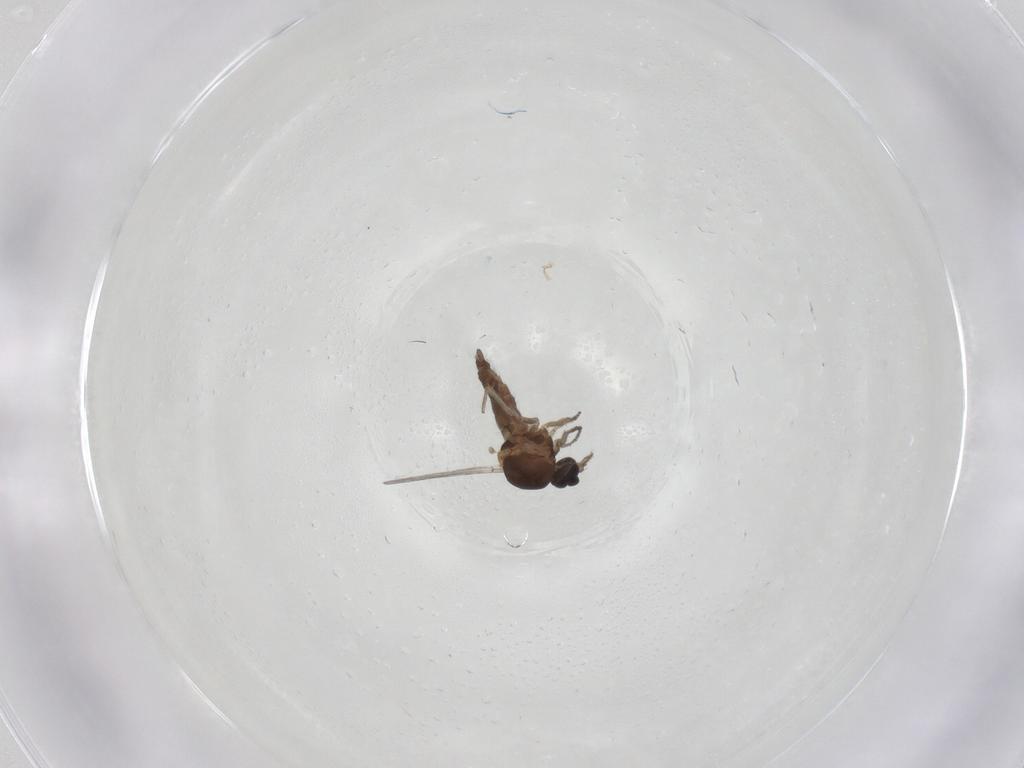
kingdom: Animalia
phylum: Arthropoda
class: Insecta
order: Diptera
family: Ceratopogonidae
